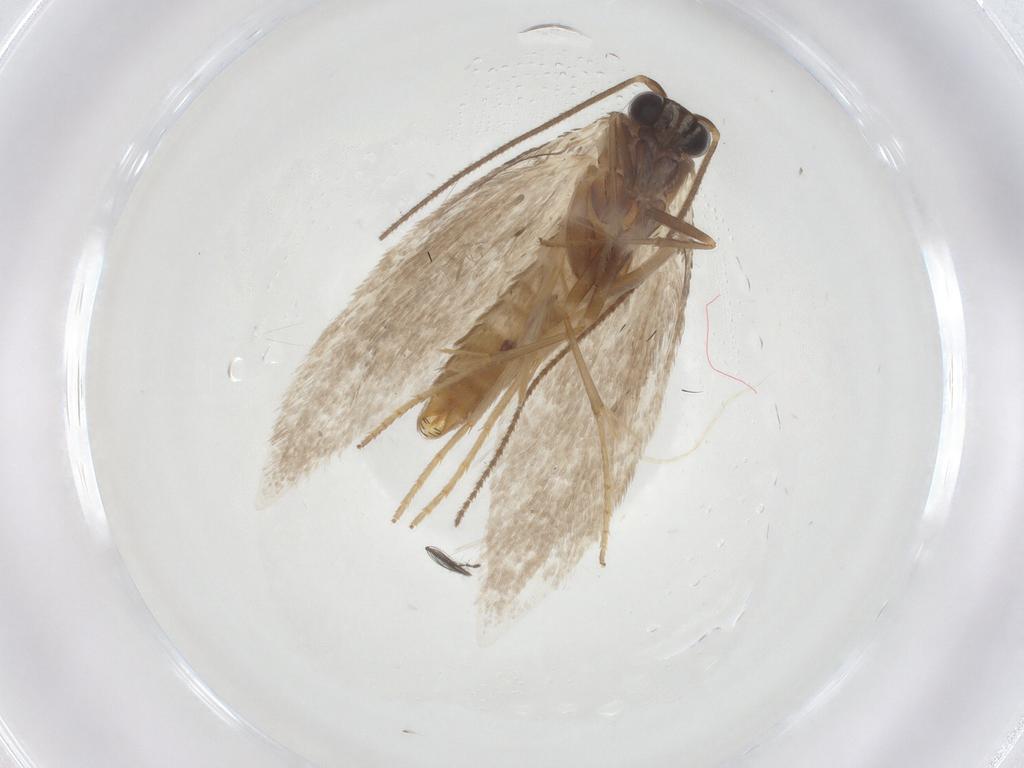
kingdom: Animalia
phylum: Arthropoda
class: Insecta
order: Lepidoptera
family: Incurvariidae
